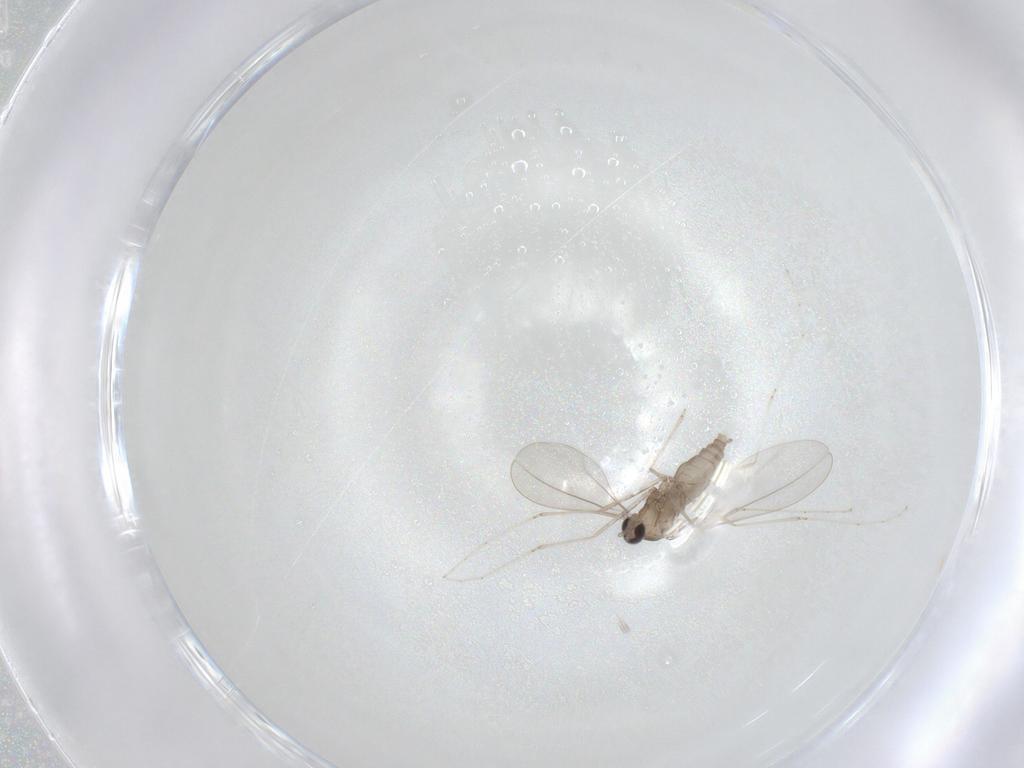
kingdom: Animalia
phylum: Arthropoda
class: Insecta
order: Diptera
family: Cecidomyiidae
